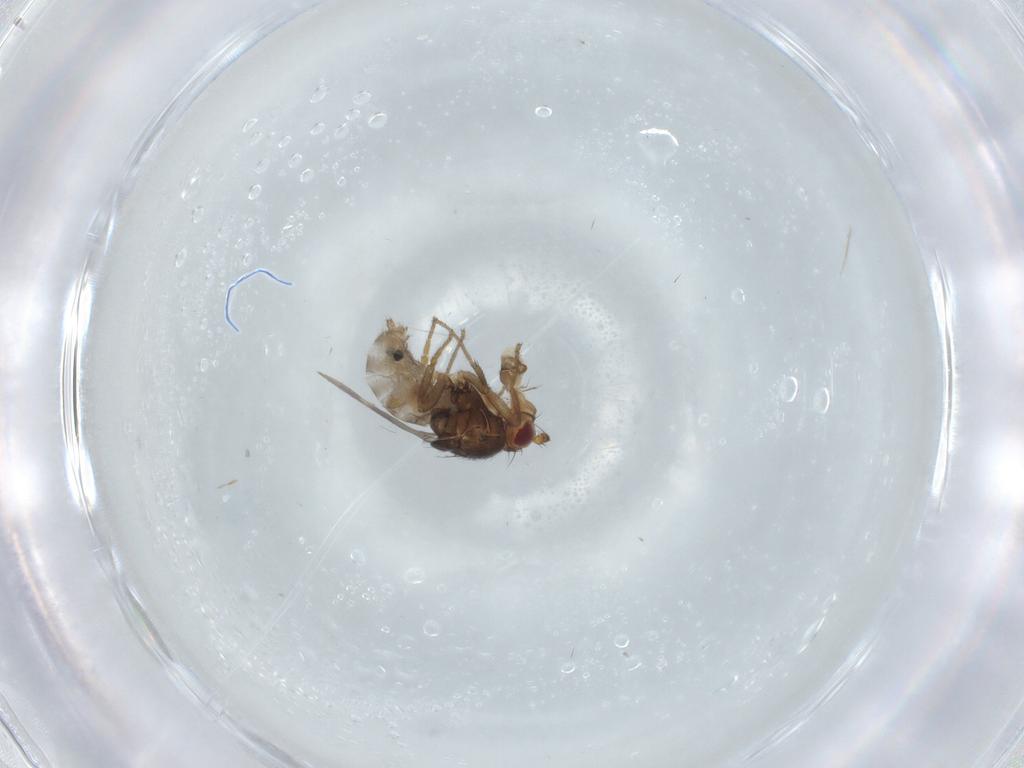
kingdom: Animalia
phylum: Arthropoda
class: Insecta
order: Diptera
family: Sphaeroceridae
